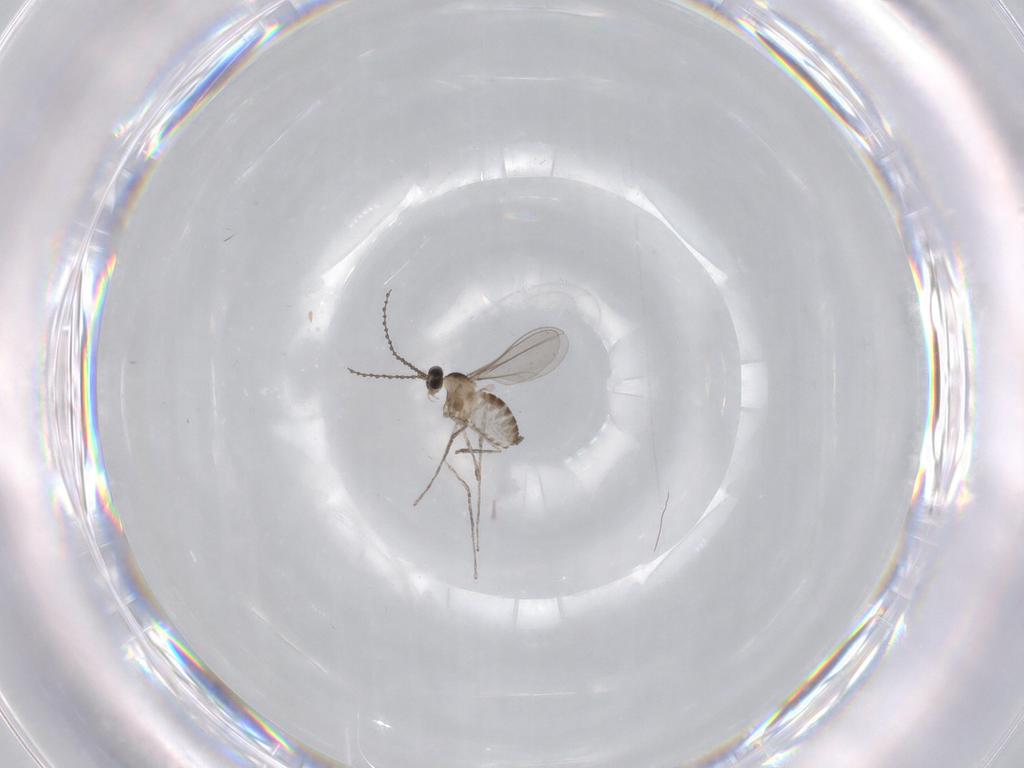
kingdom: Animalia
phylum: Arthropoda
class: Insecta
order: Diptera
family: Cecidomyiidae
